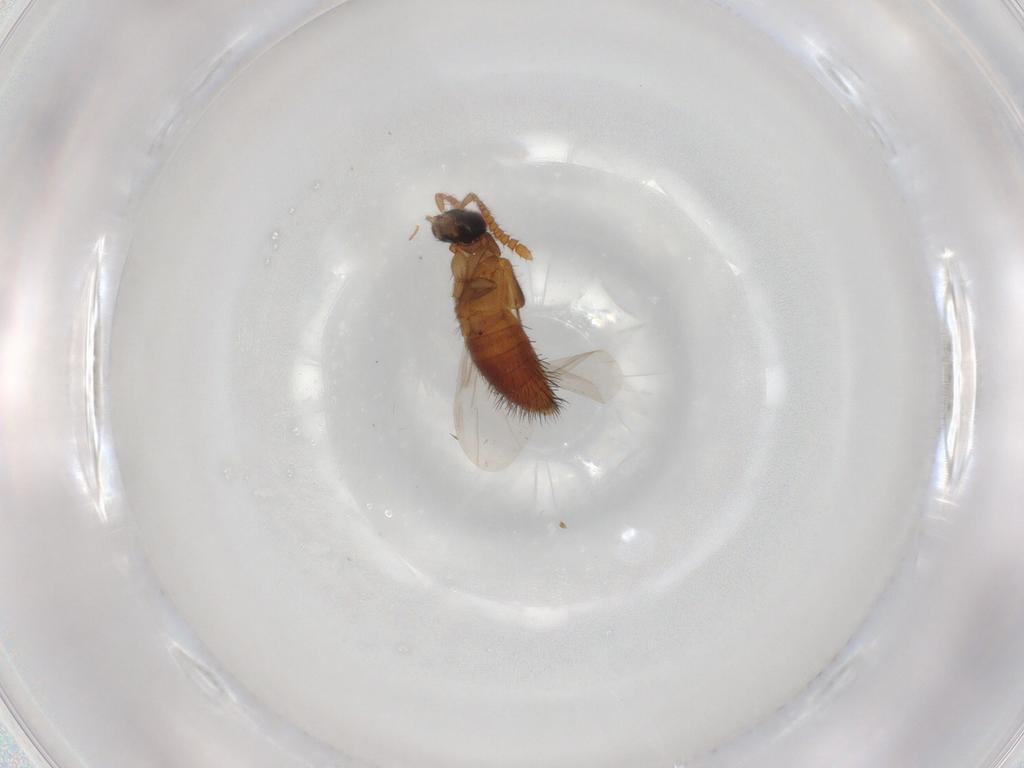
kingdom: Animalia
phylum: Arthropoda
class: Insecta
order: Coleoptera
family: Staphylinidae
